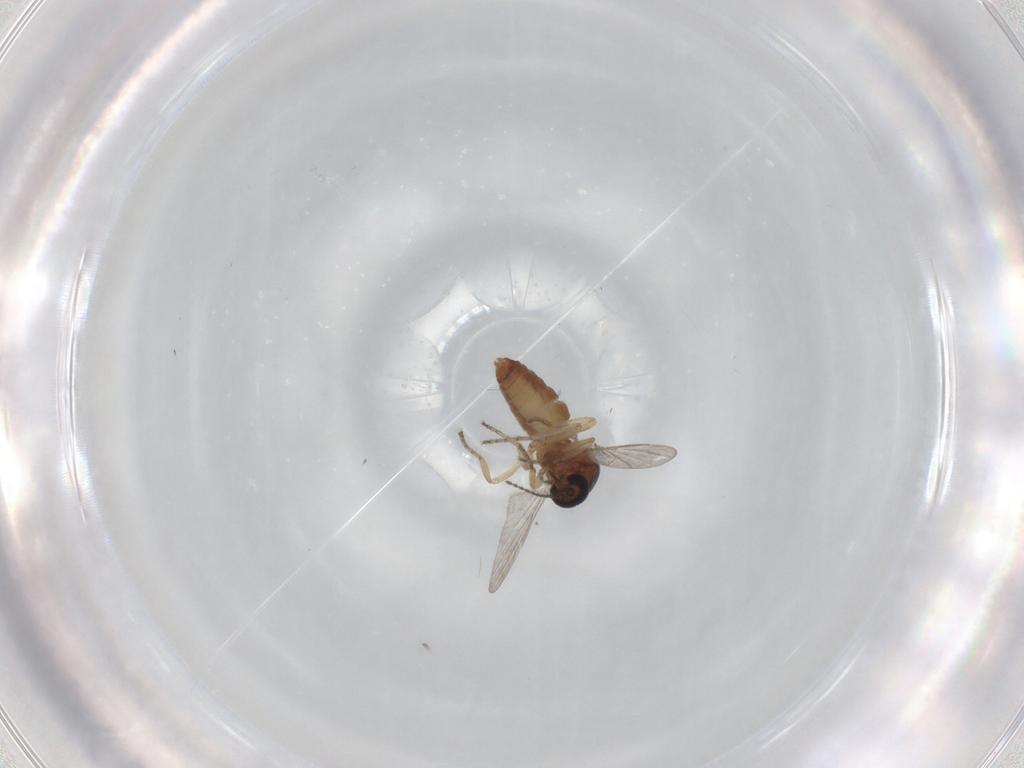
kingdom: Animalia
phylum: Arthropoda
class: Insecta
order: Diptera
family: Ceratopogonidae
